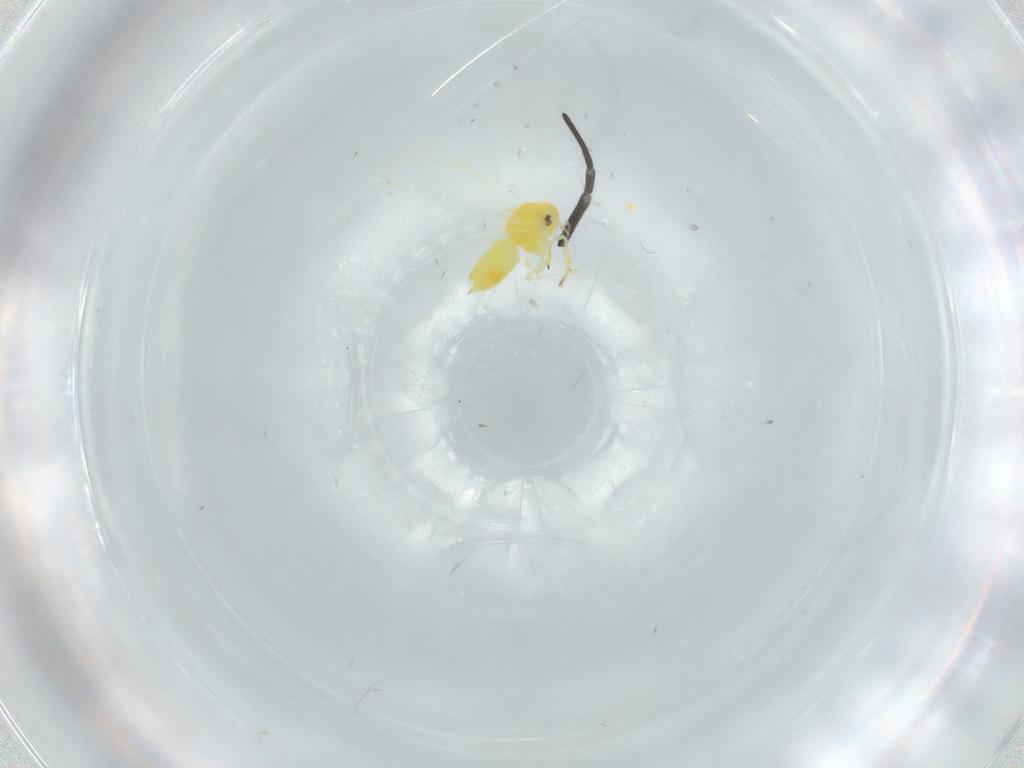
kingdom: Animalia
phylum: Arthropoda
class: Insecta
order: Hemiptera
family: Aleyrodidae
